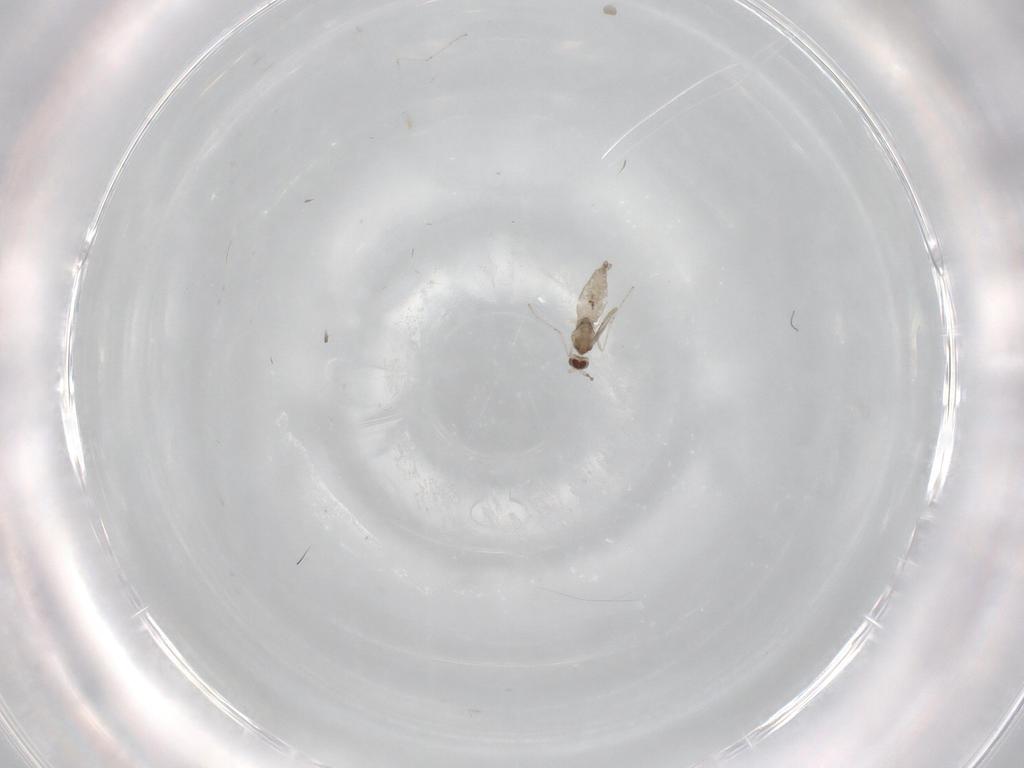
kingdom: Animalia
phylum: Arthropoda
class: Insecta
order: Diptera
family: Cecidomyiidae
